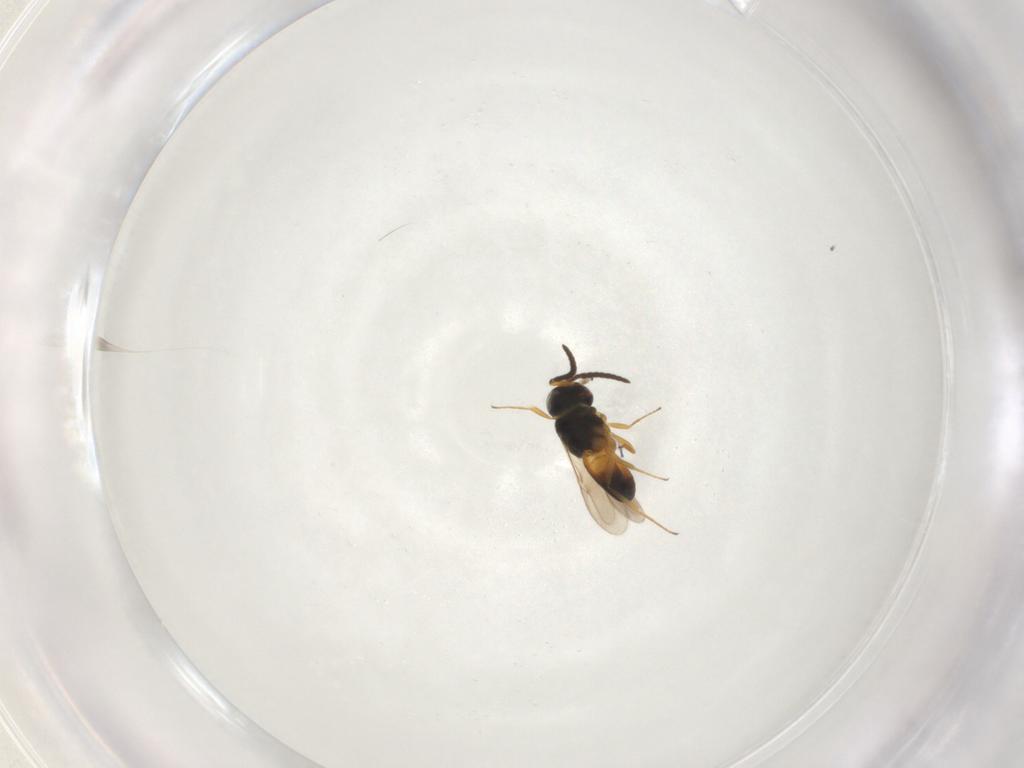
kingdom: Animalia
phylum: Arthropoda
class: Insecta
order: Hymenoptera
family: Scelionidae
